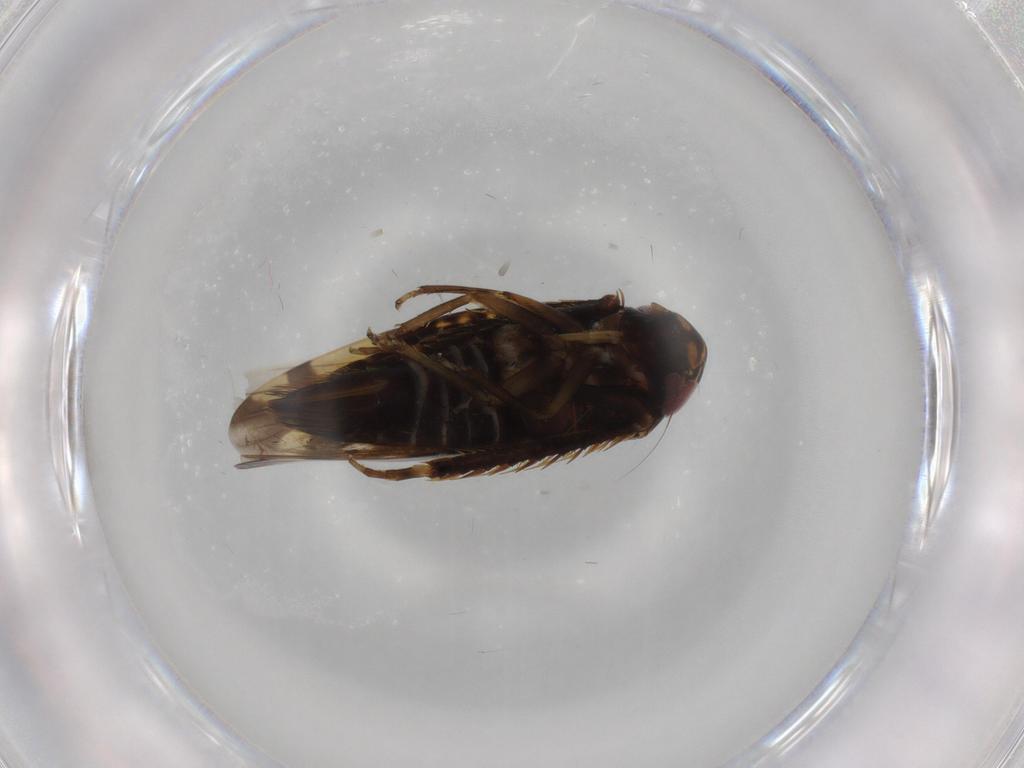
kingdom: Animalia
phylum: Arthropoda
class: Insecta
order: Hemiptera
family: Cicadellidae
